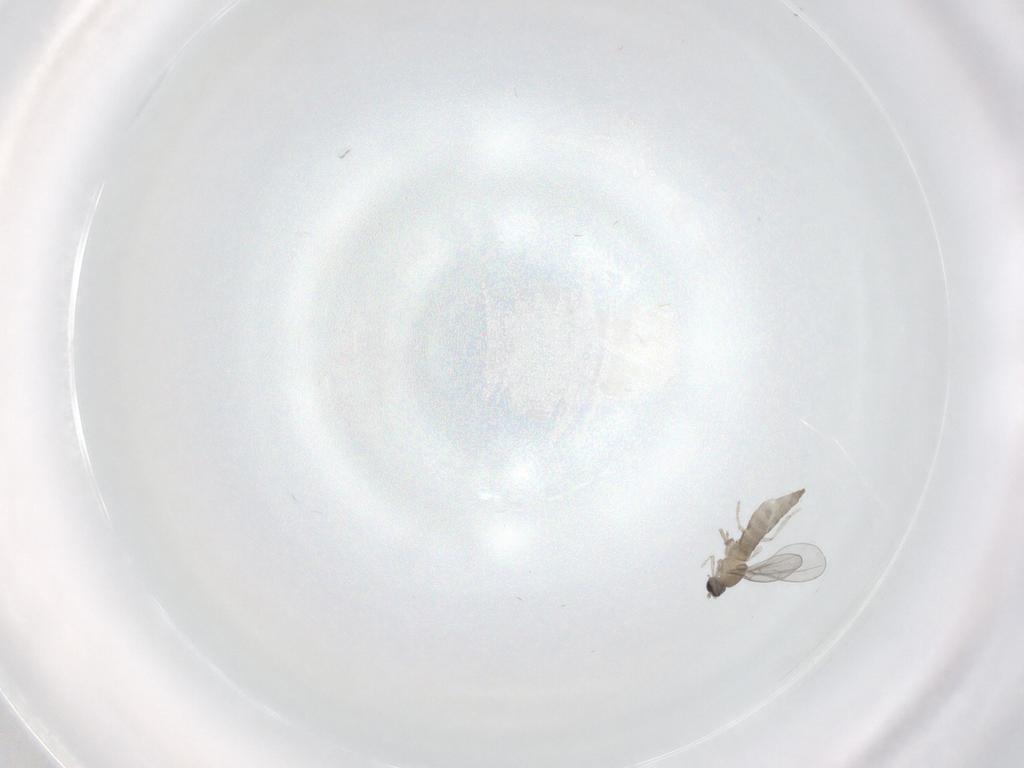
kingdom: Animalia
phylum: Arthropoda
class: Insecta
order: Diptera
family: Cecidomyiidae
